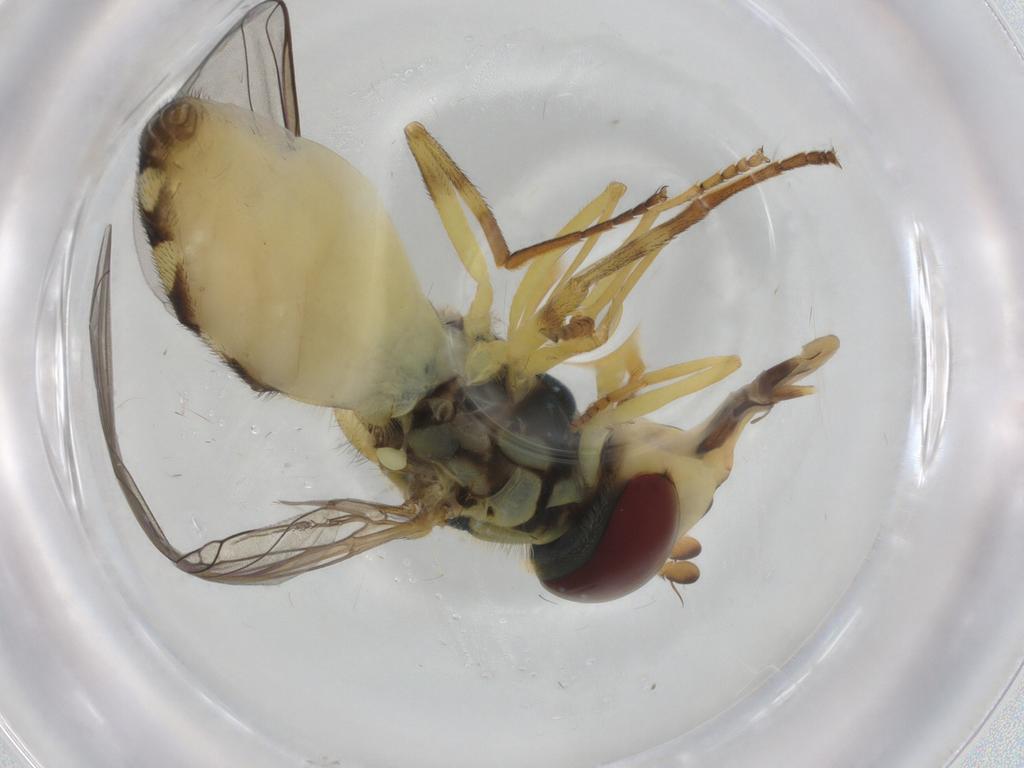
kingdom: Animalia
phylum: Arthropoda
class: Insecta
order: Diptera
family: Syrphidae
